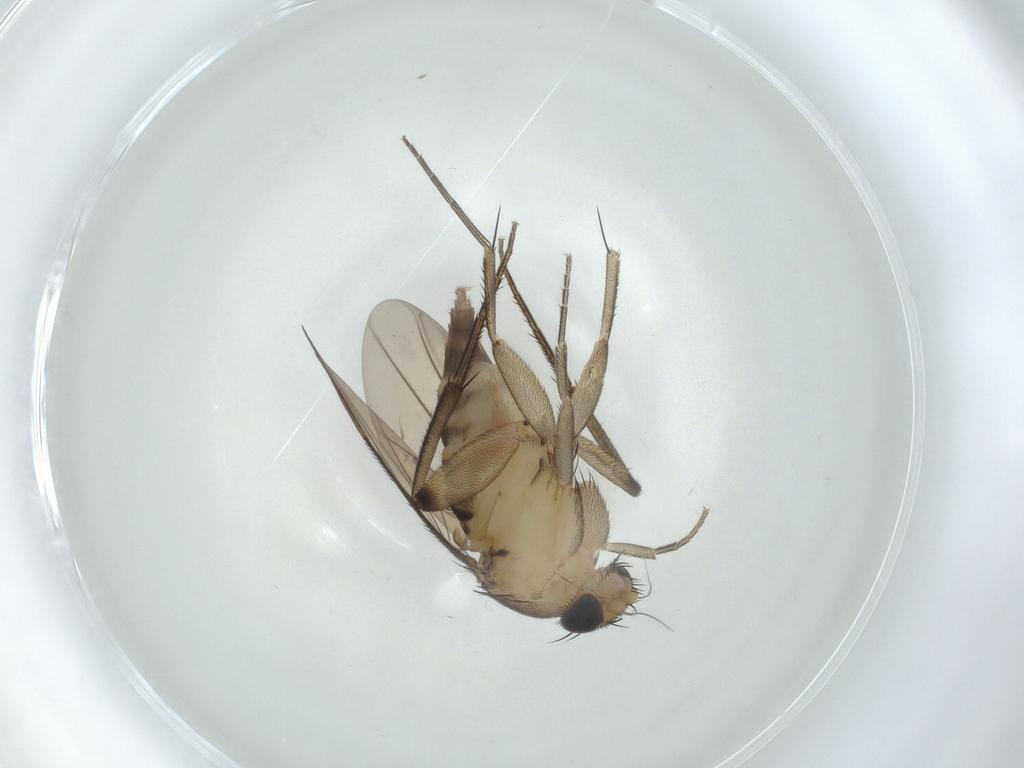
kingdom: Animalia
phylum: Arthropoda
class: Insecta
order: Diptera
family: Phoridae
